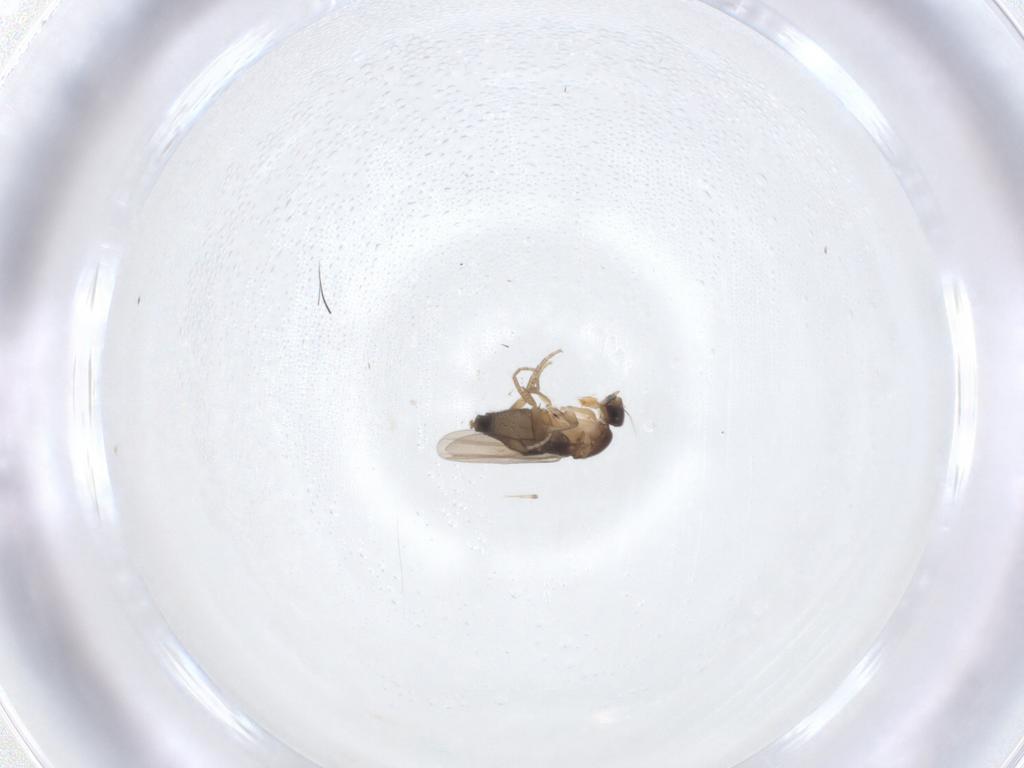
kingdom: Animalia
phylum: Arthropoda
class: Insecta
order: Diptera
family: Phoridae
